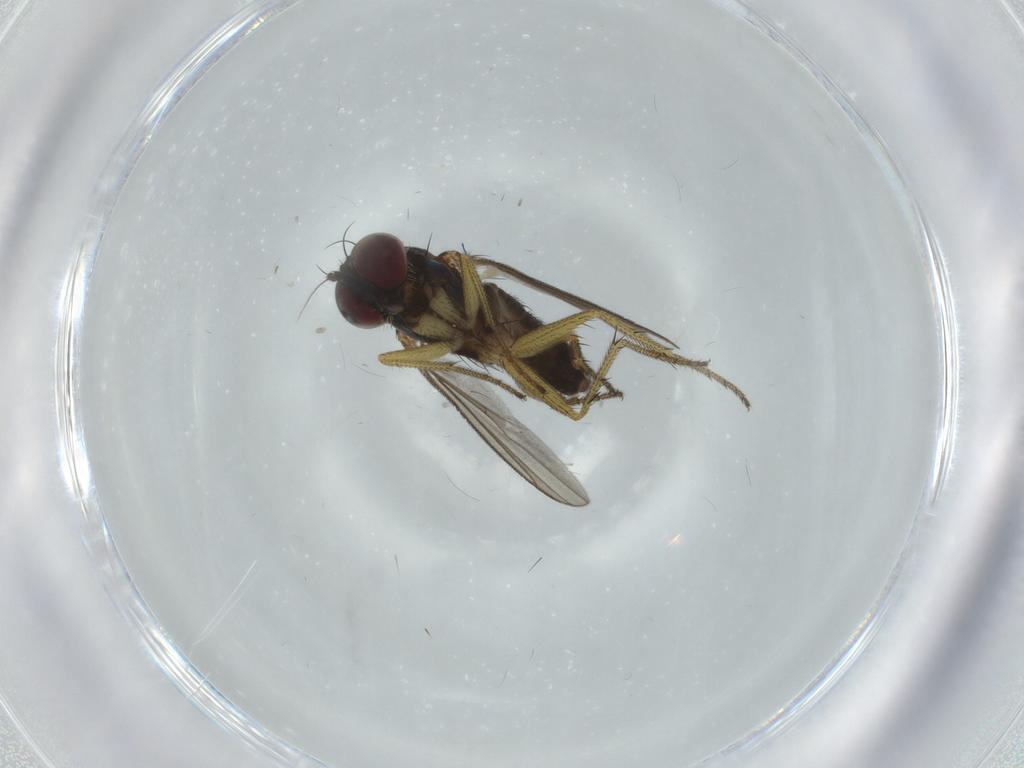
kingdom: Animalia
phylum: Arthropoda
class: Insecta
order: Diptera
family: Dolichopodidae
